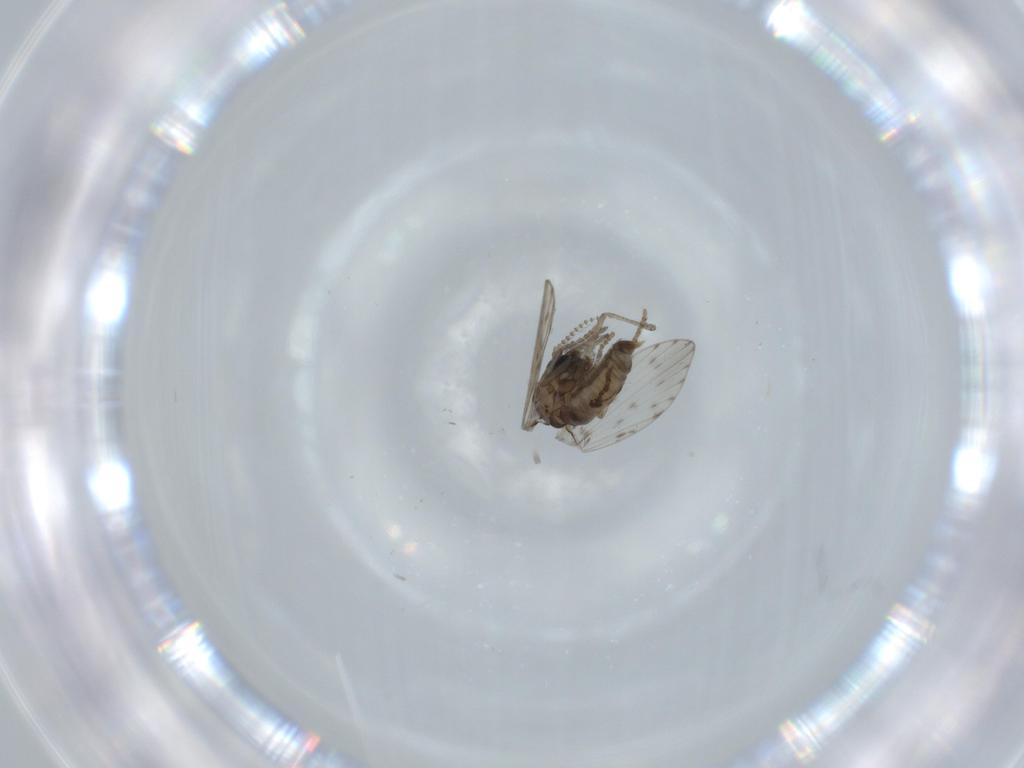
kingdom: Animalia
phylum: Arthropoda
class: Insecta
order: Diptera
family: Psychodidae
